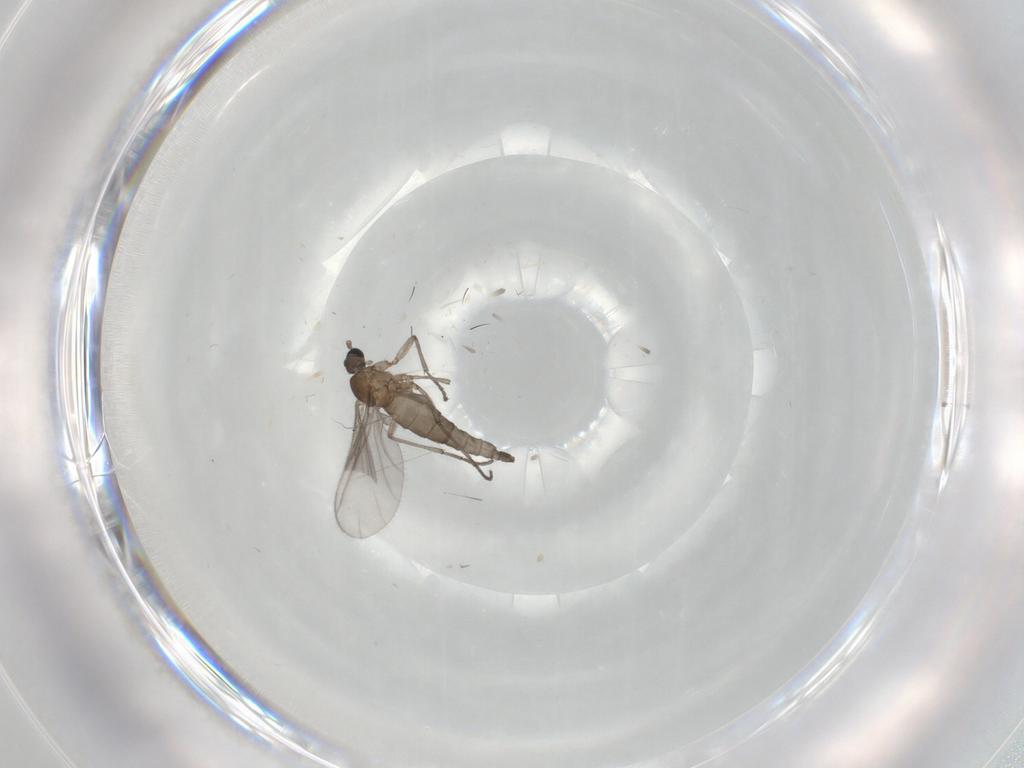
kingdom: Animalia
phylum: Arthropoda
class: Insecta
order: Diptera
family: Sciaridae
